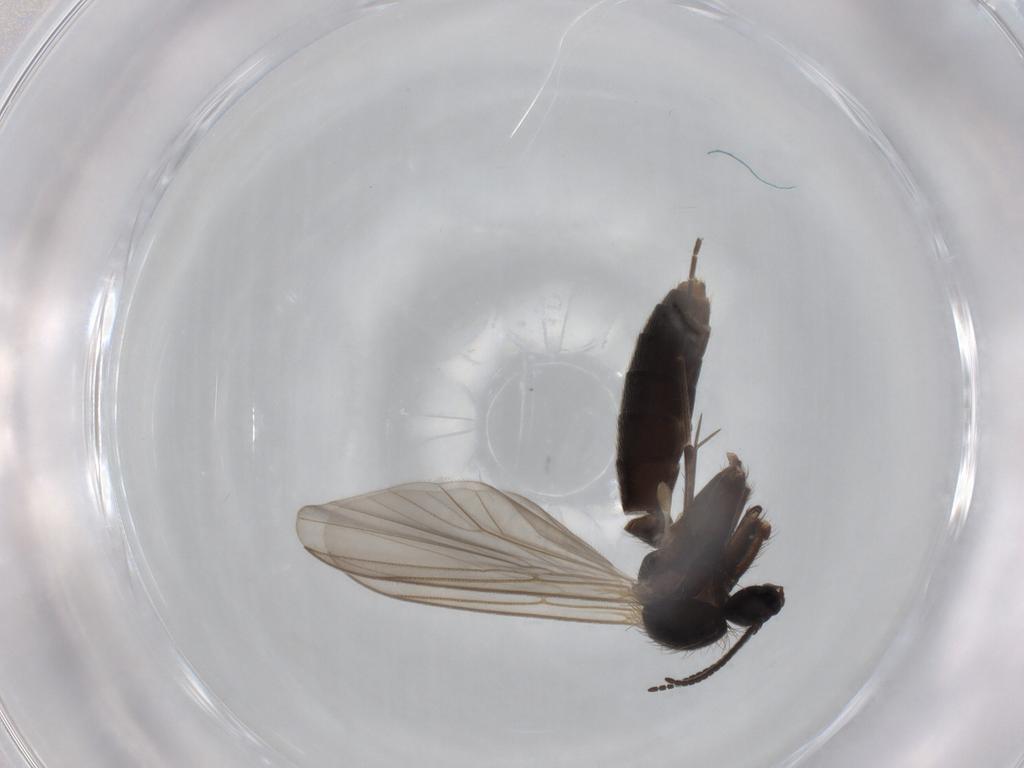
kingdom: Animalia
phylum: Arthropoda
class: Insecta
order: Diptera
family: Mycetophilidae
